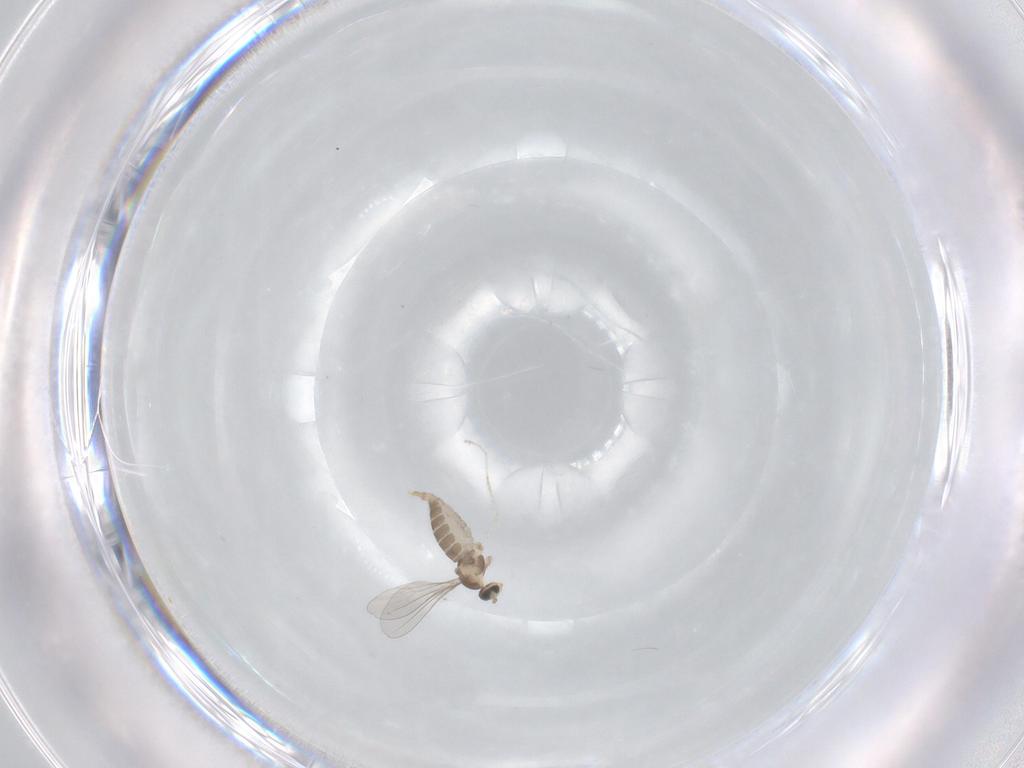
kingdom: Animalia
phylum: Arthropoda
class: Insecta
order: Diptera
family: Cecidomyiidae
